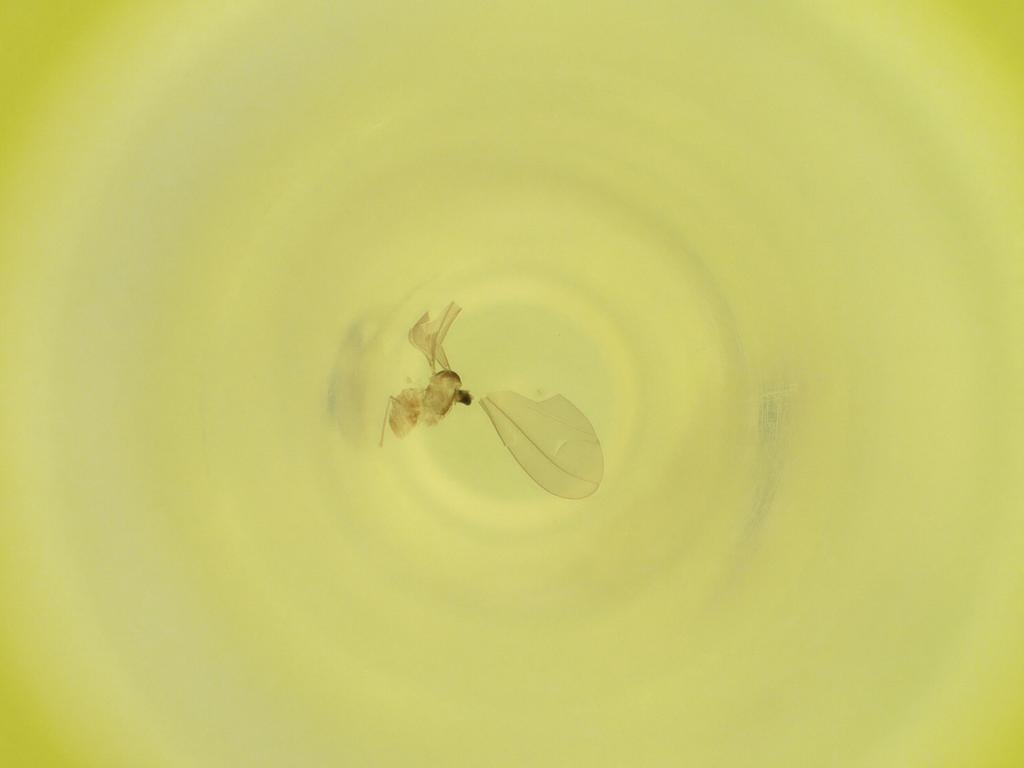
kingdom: Animalia
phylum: Arthropoda
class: Insecta
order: Diptera
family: Cecidomyiidae
